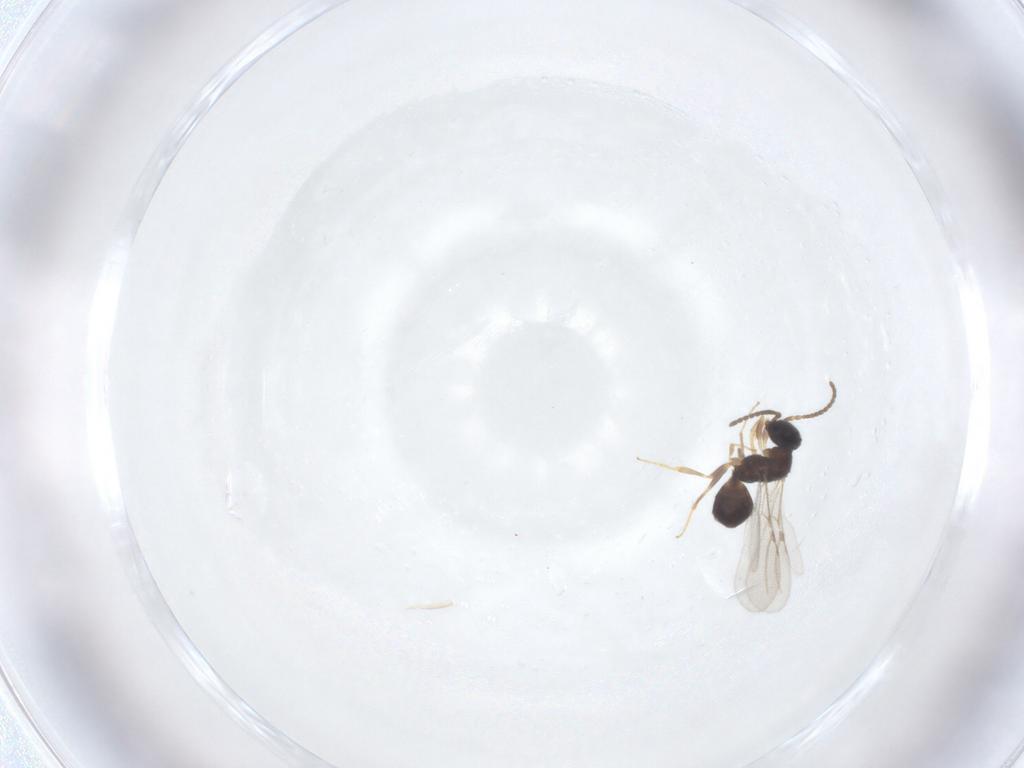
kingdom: Animalia
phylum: Arthropoda
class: Insecta
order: Hymenoptera
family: Bethylidae
